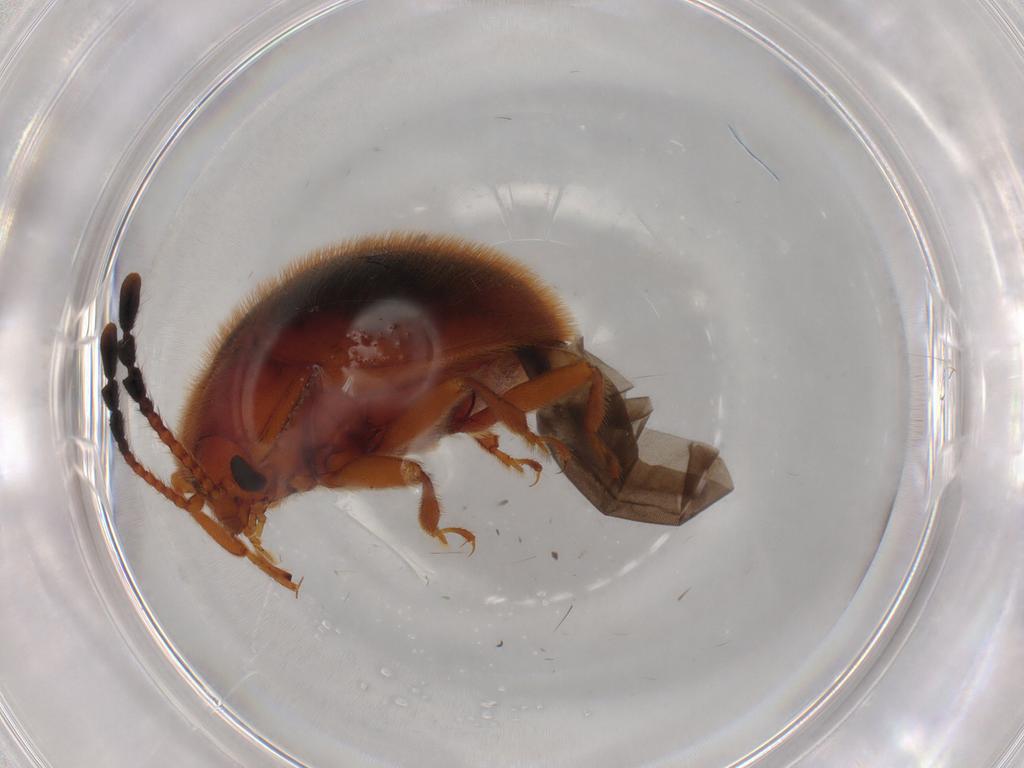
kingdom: Animalia
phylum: Arthropoda
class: Insecta
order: Coleoptera
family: Endomychidae
